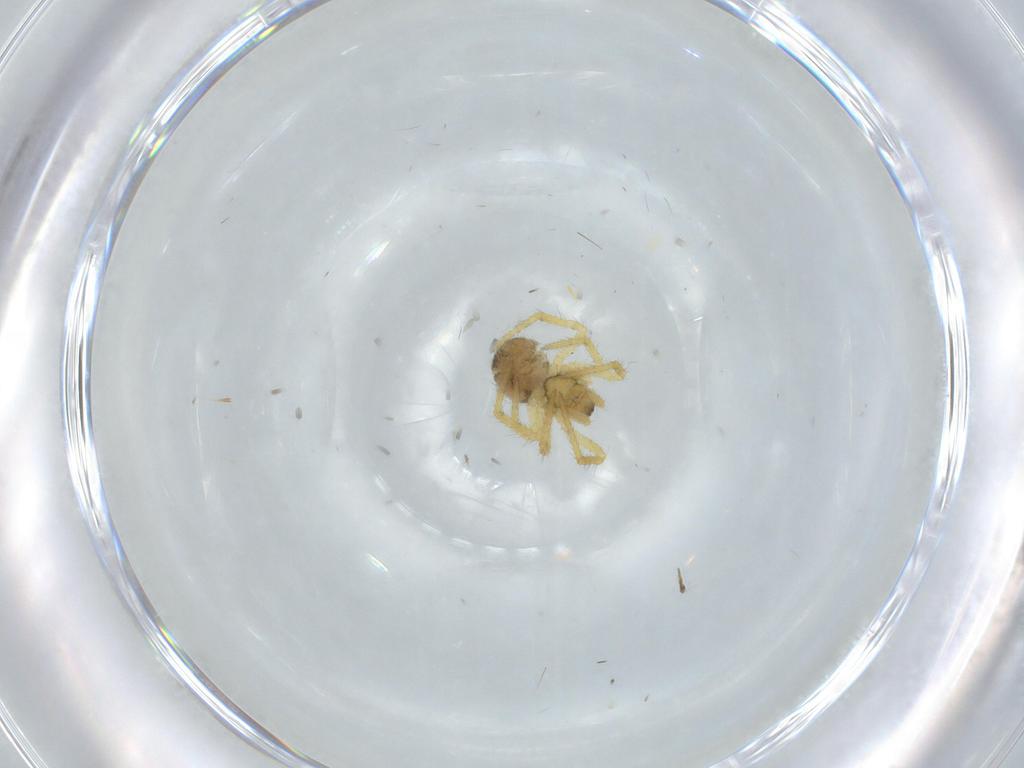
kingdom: Animalia
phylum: Arthropoda
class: Arachnida
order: Araneae
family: Theridiidae
